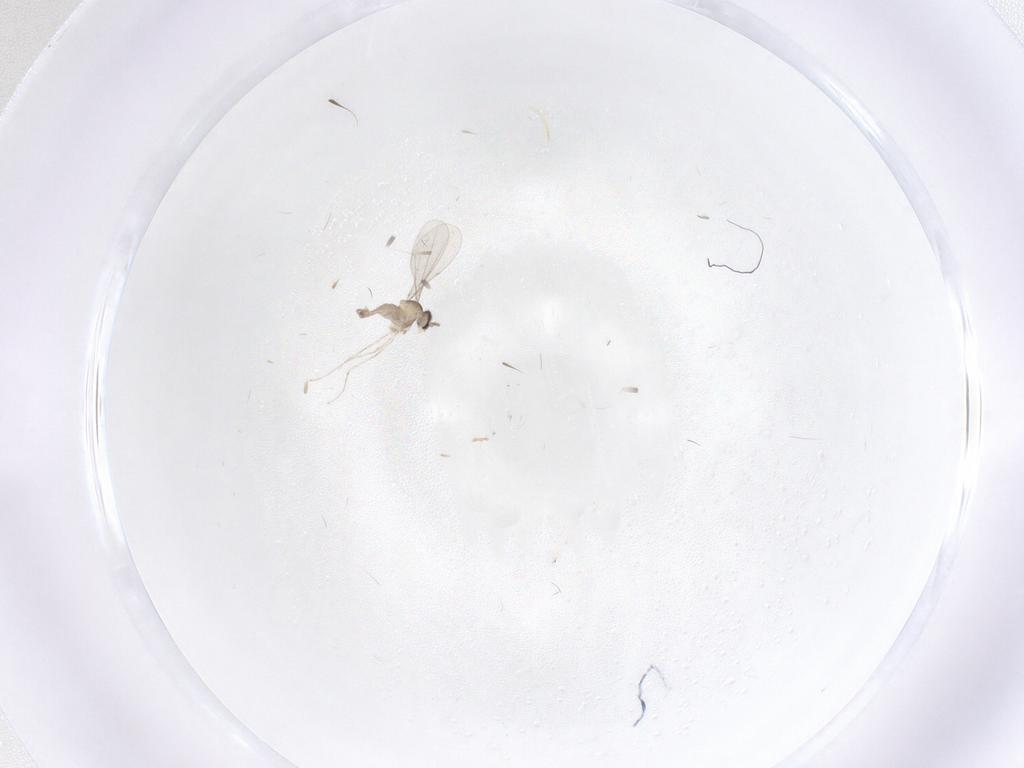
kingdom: Animalia
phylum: Arthropoda
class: Insecta
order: Diptera
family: Cecidomyiidae
